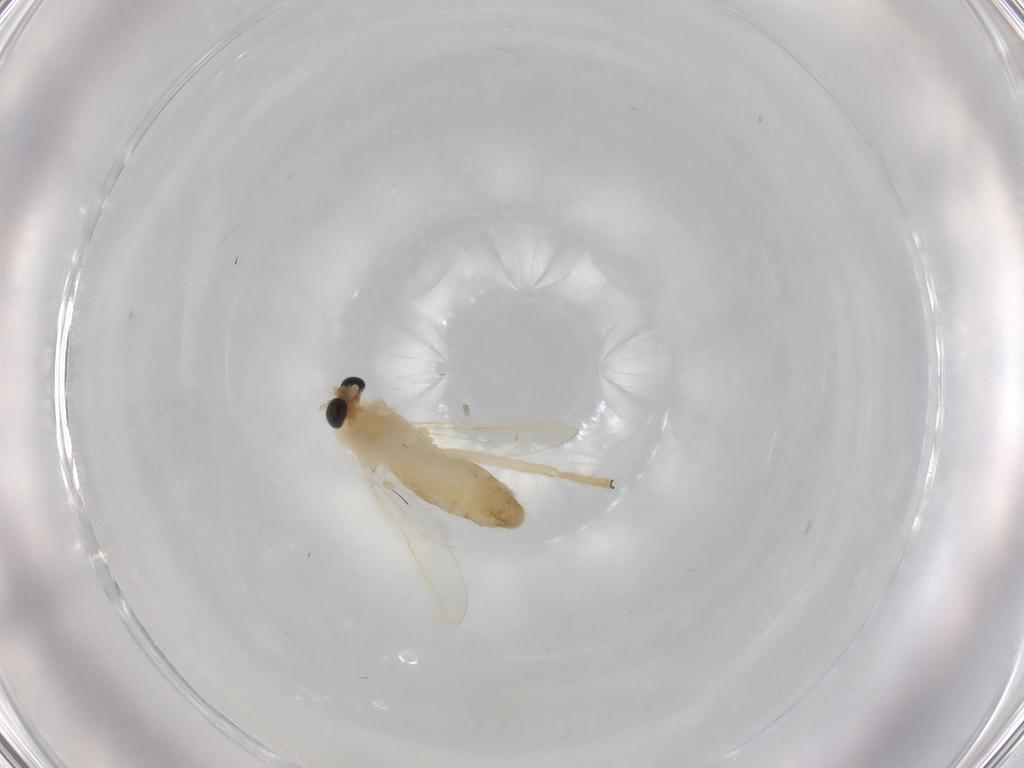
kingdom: Animalia
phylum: Arthropoda
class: Insecta
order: Diptera
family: Chironomidae
